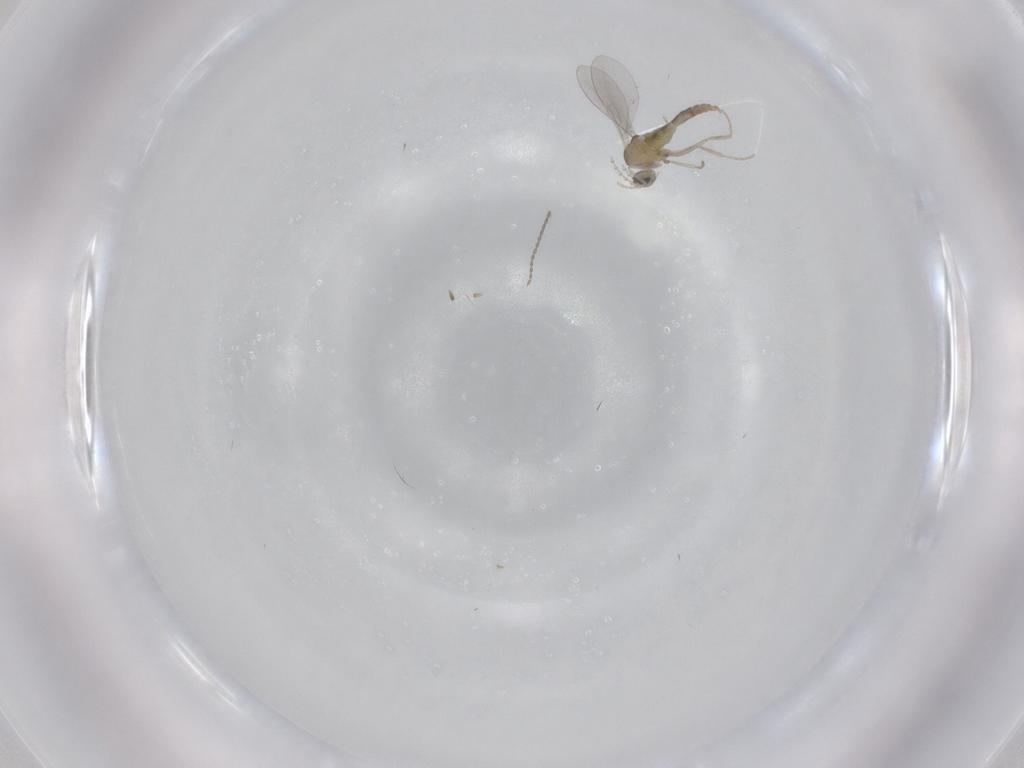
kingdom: Animalia
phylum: Arthropoda
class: Insecta
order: Diptera
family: Cecidomyiidae
